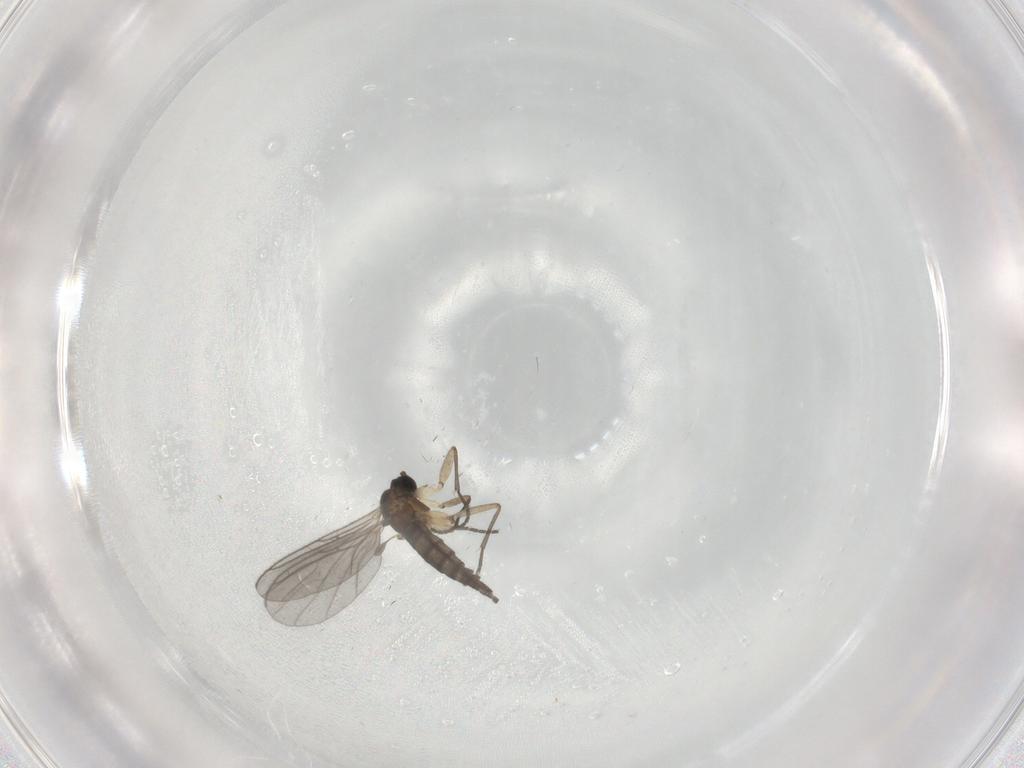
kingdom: Animalia
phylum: Arthropoda
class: Insecta
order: Diptera
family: Sciaridae
